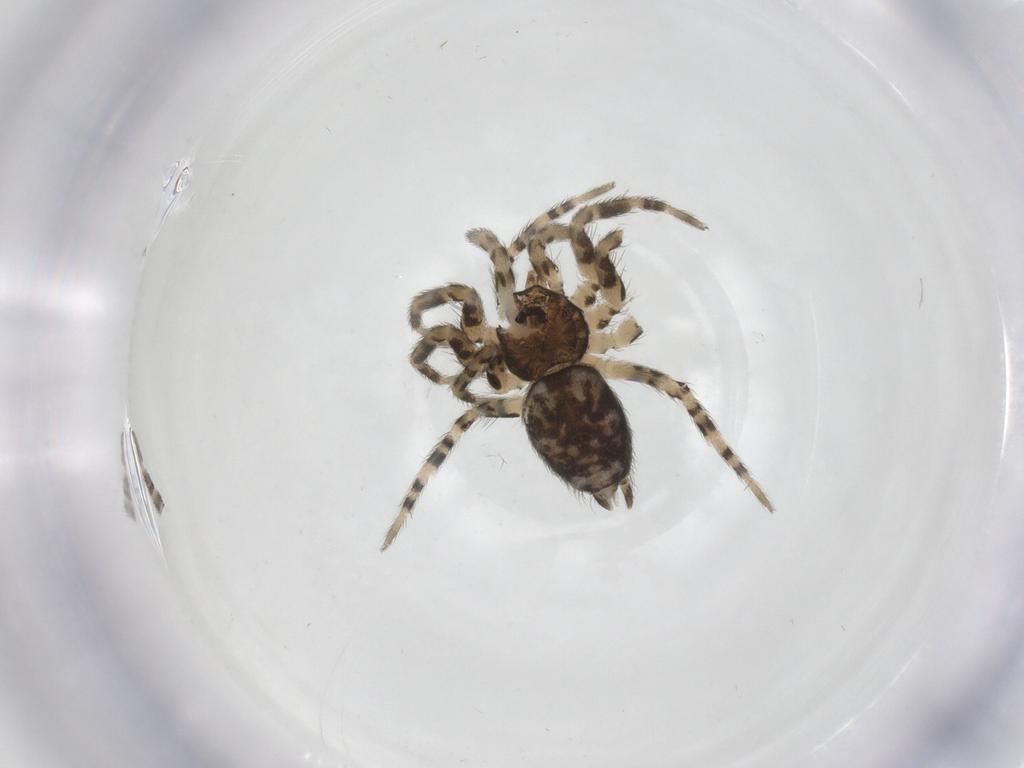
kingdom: Animalia
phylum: Arthropoda
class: Arachnida
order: Araneae
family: Oecobiidae
